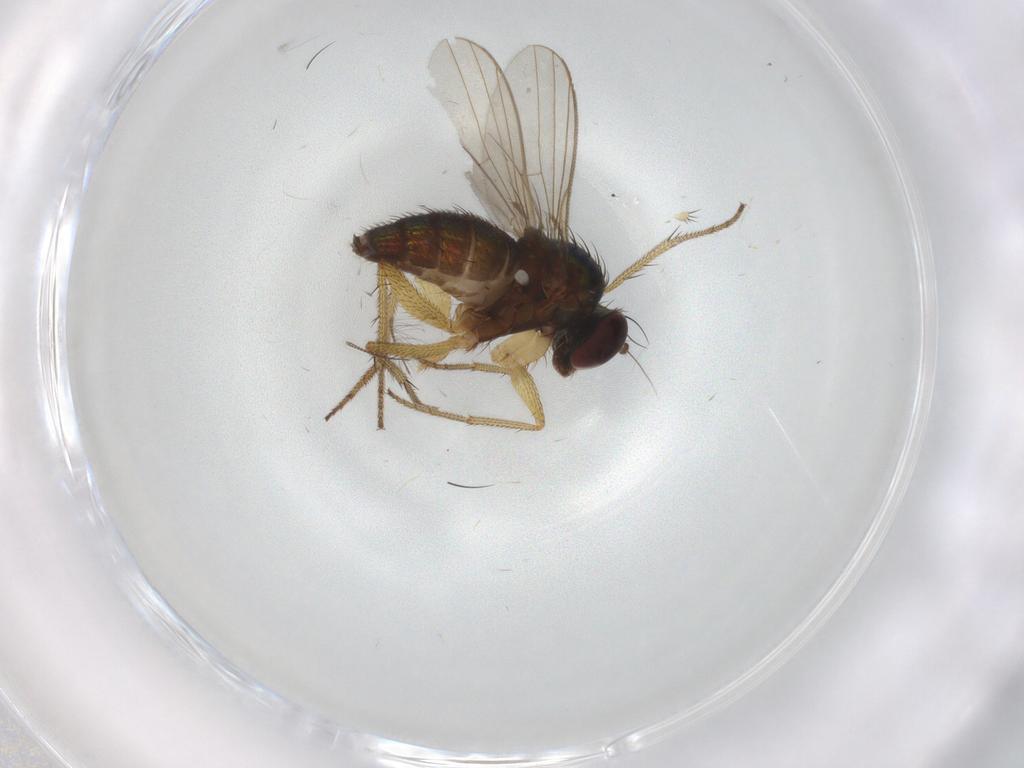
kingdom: Animalia
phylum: Arthropoda
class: Insecta
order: Diptera
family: Dolichopodidae
